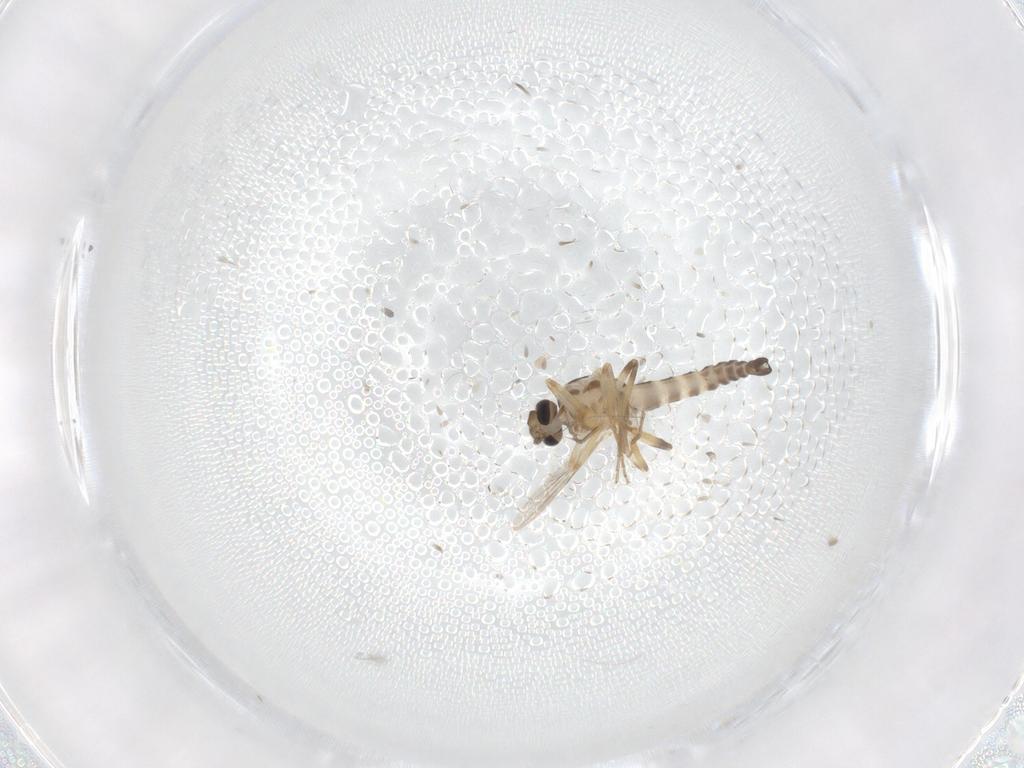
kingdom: Animalia
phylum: Arthropoda
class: Insecta
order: Diptera
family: Ceratopogonidae
